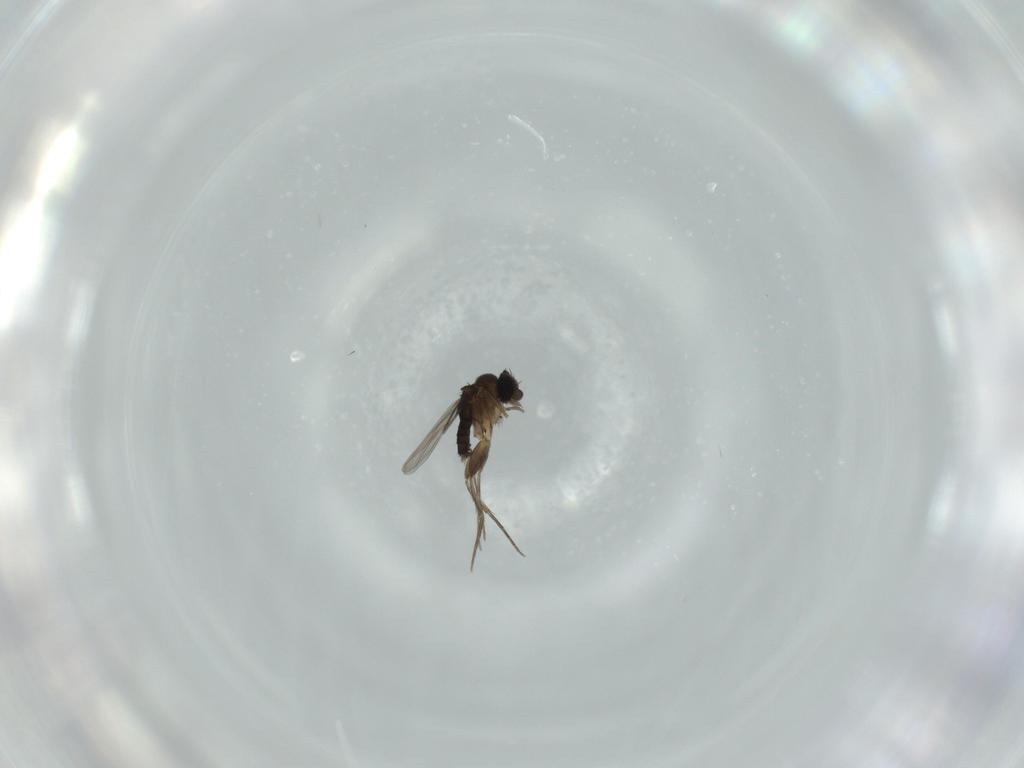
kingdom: Animalia
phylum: Arthropoda
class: Insecta
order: Diptera
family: Phoridae
